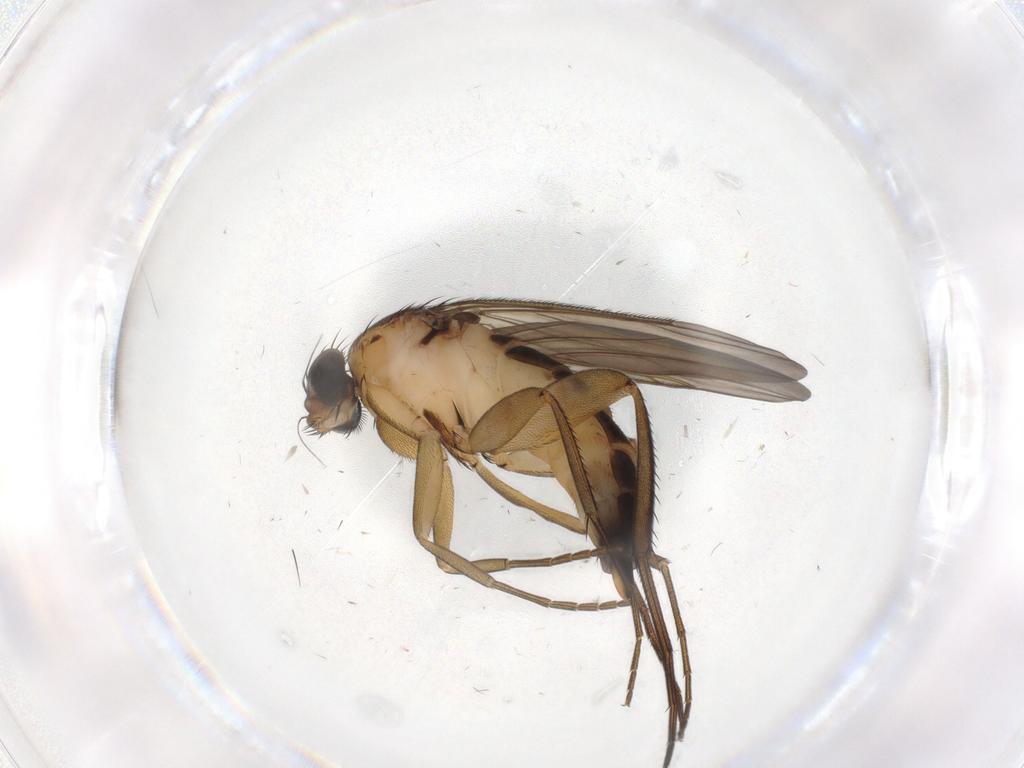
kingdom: Animalia
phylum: Arthropoda
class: Insecta
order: Diptera
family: Phoridae
